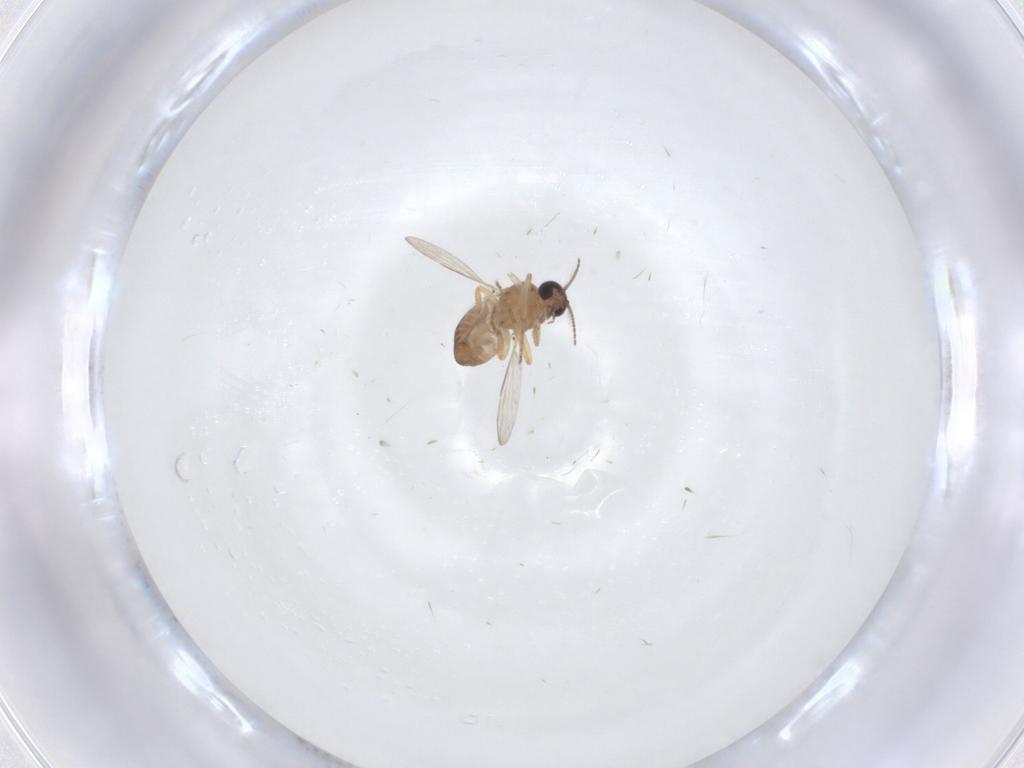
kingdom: Animalia
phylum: Arthropoda
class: Insecta
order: Diptera
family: Ceratopogonidae
